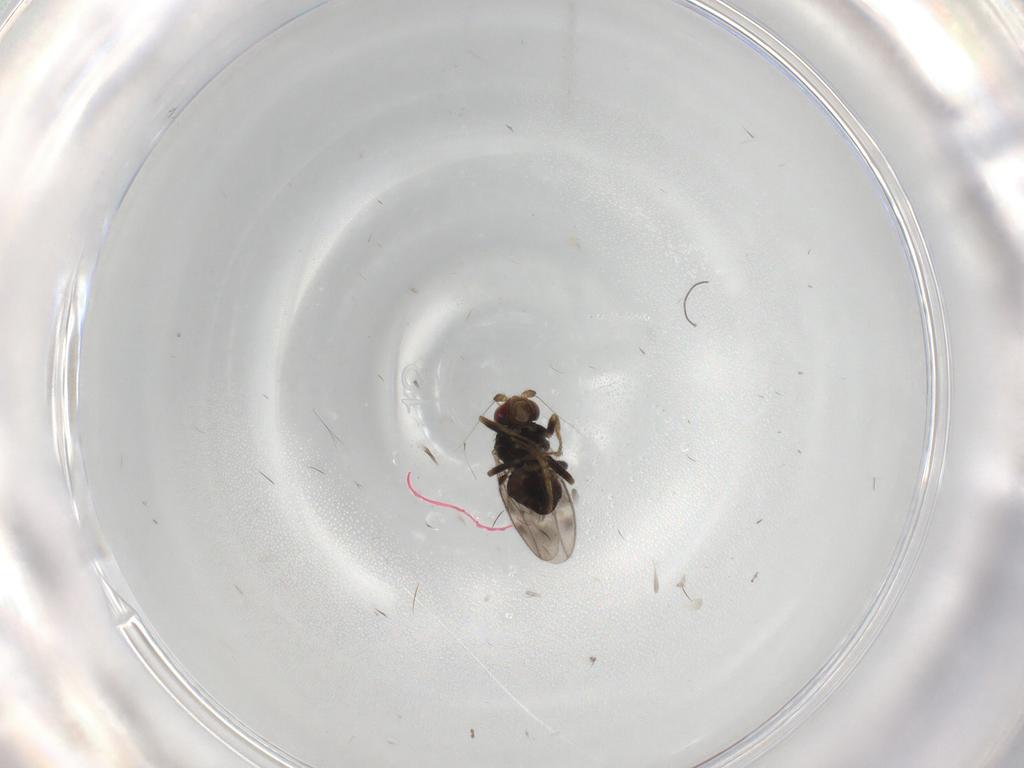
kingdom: Animalia
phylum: Arthropoda
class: Insecta
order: Diptera
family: Sphaeroceridae
